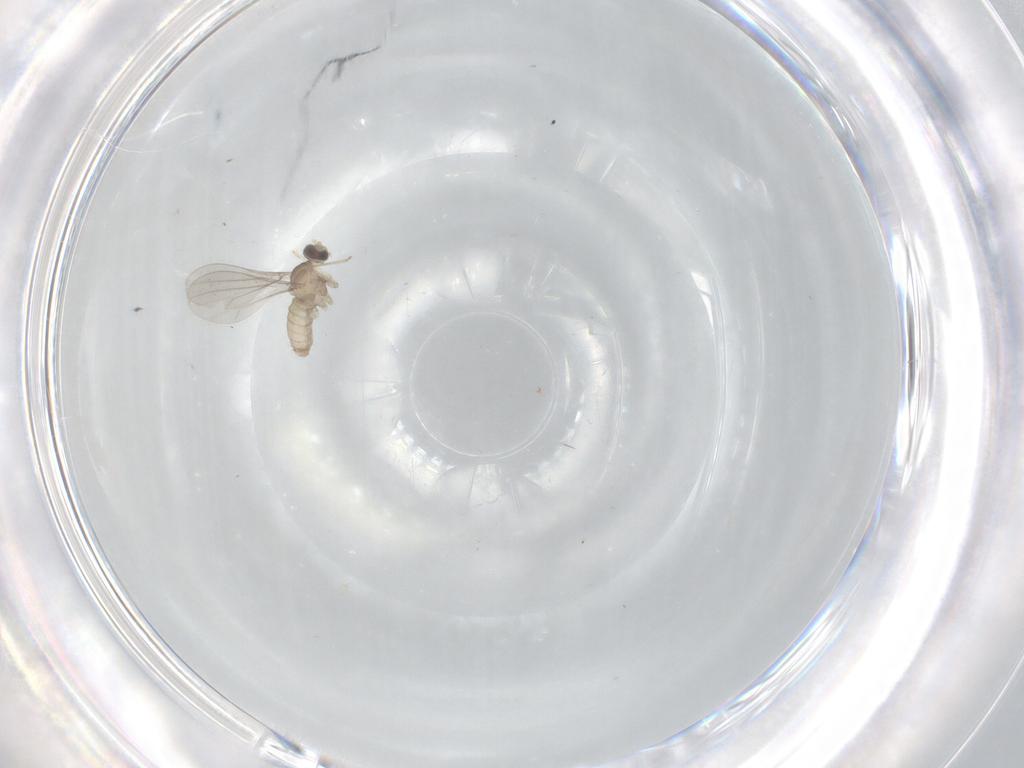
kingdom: Animalia
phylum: Arthropoda
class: Insecta
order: Diptera
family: Cecidomyiidae
